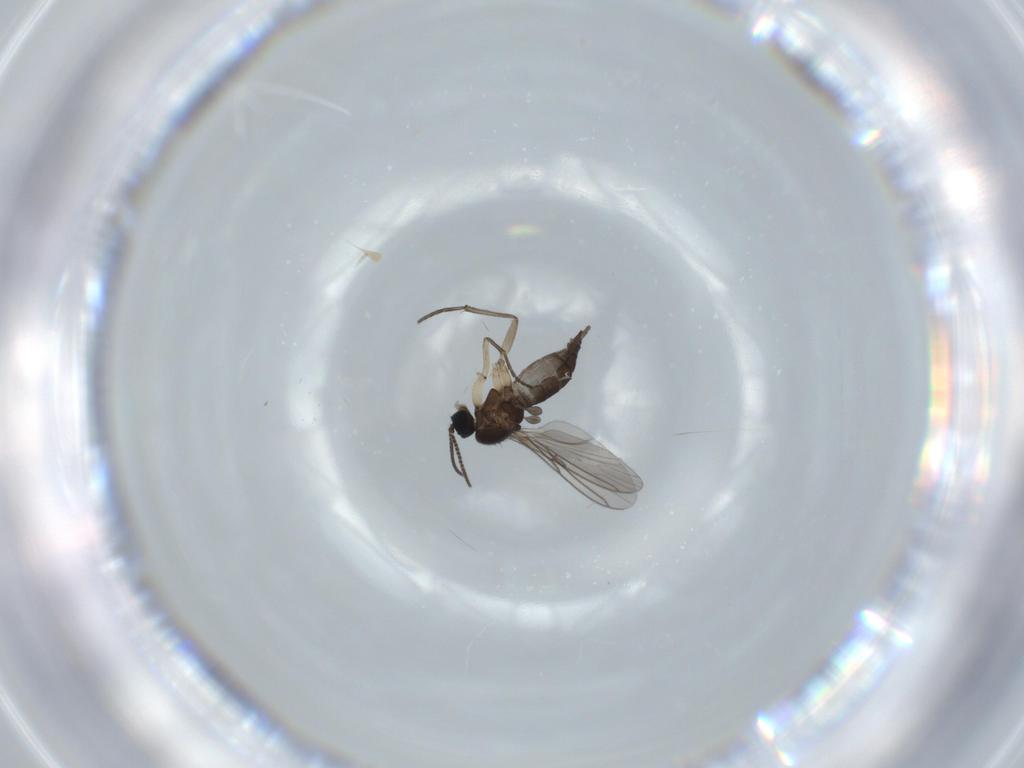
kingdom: Animalia
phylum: Arthropoda
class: Insecta
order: Diptera
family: Sciaridae
